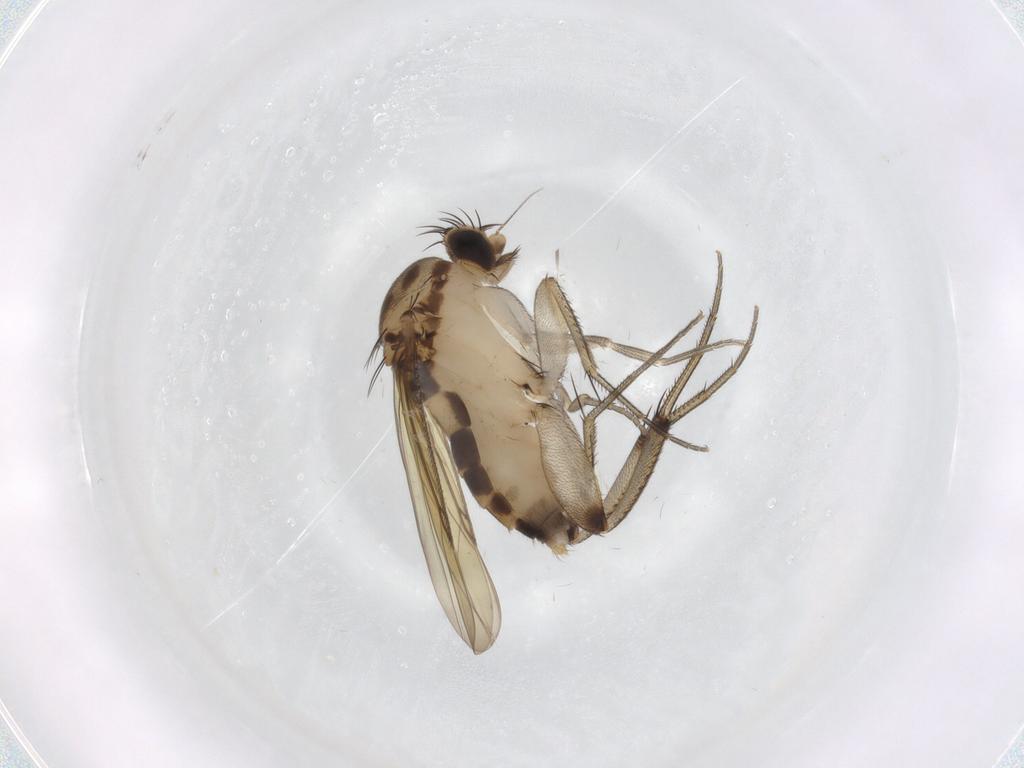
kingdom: Animalia
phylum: Arthropoda
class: Insecta
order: Diptera
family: Phoridae
